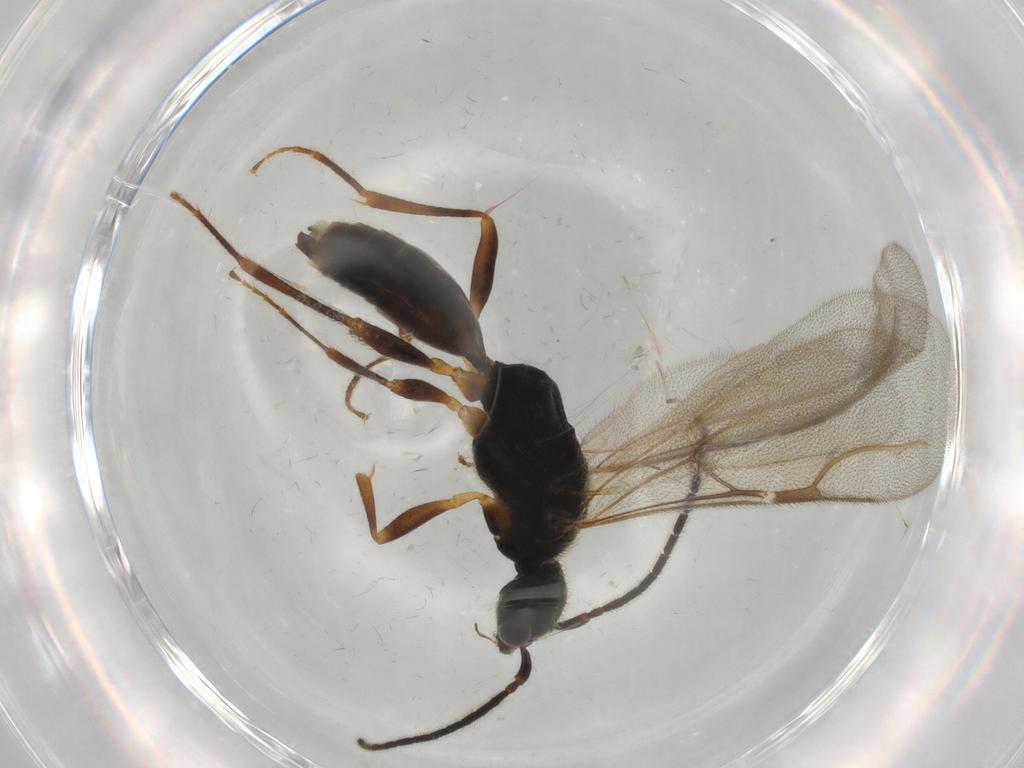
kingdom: Animalia
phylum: Arthropoda
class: Insecta
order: Hymenoptera
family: Bethylidae
